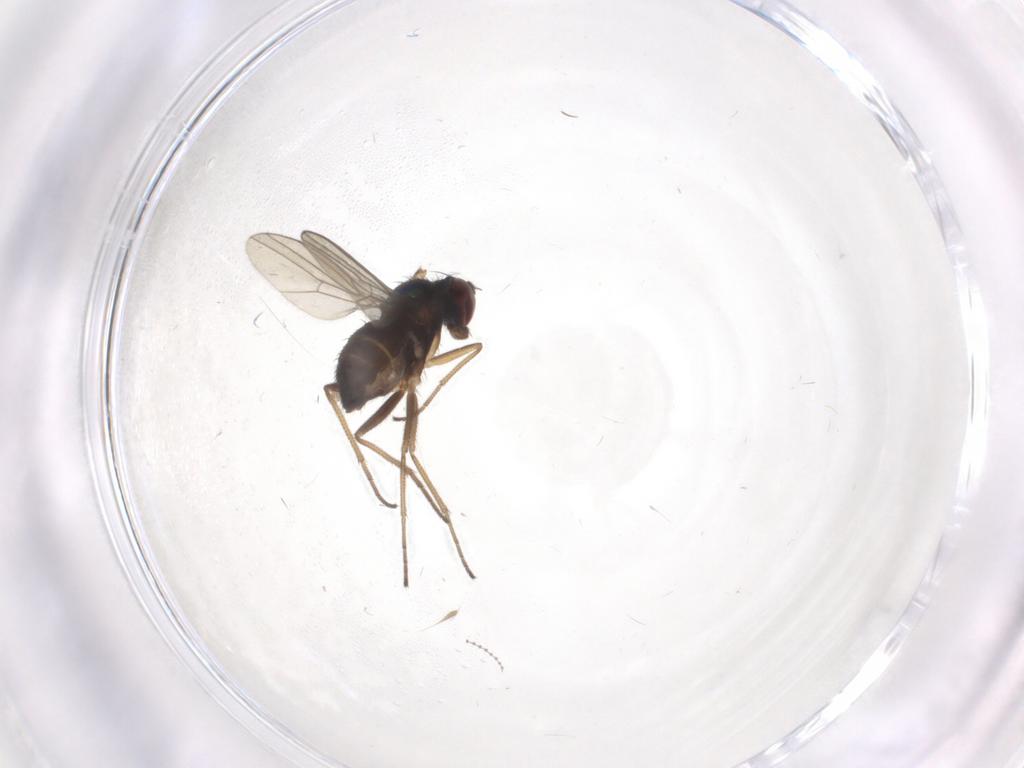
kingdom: Animalia
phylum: Arthropoda
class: Insecta
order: Diptera
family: Dolichopodidae
